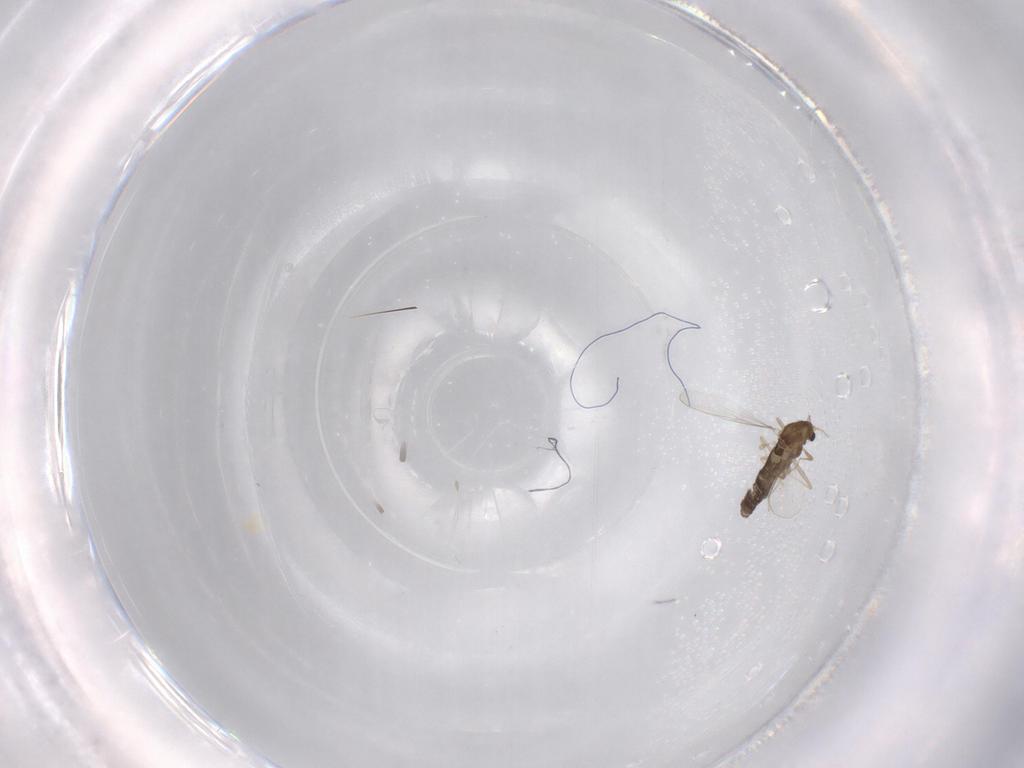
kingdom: Animalia
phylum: Arthropoda
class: Insecta
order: Diptera
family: Chironomidae
